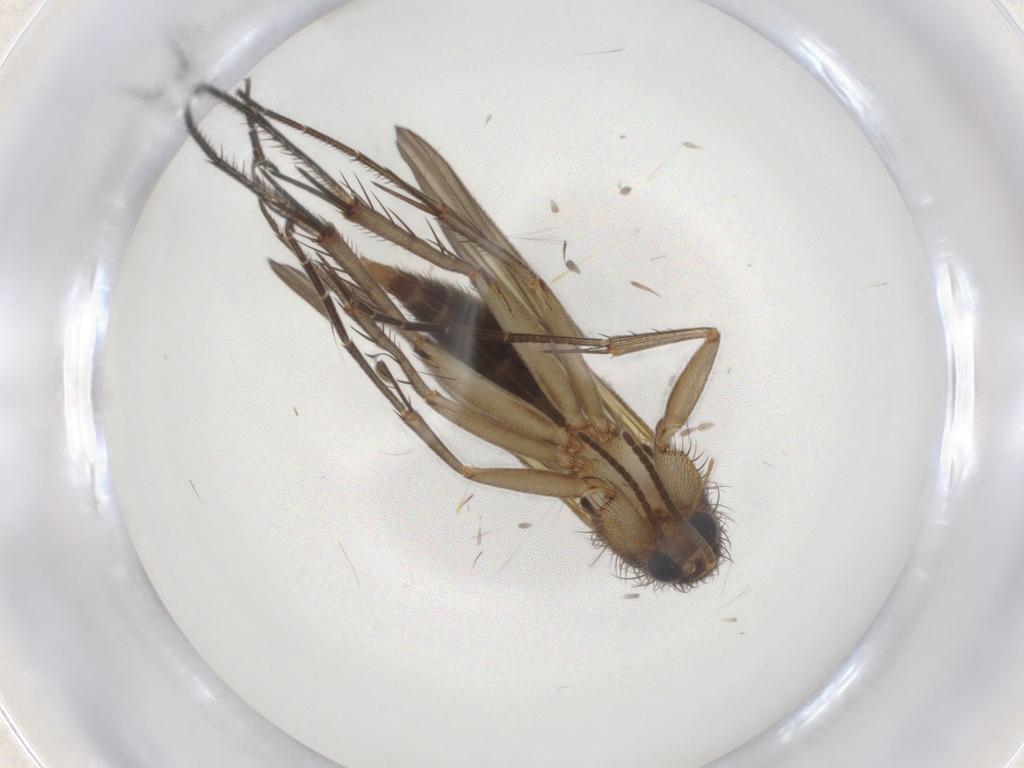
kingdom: Animalia
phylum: Arthropoda
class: Insecta
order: Diptera
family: Mycetophilidae
